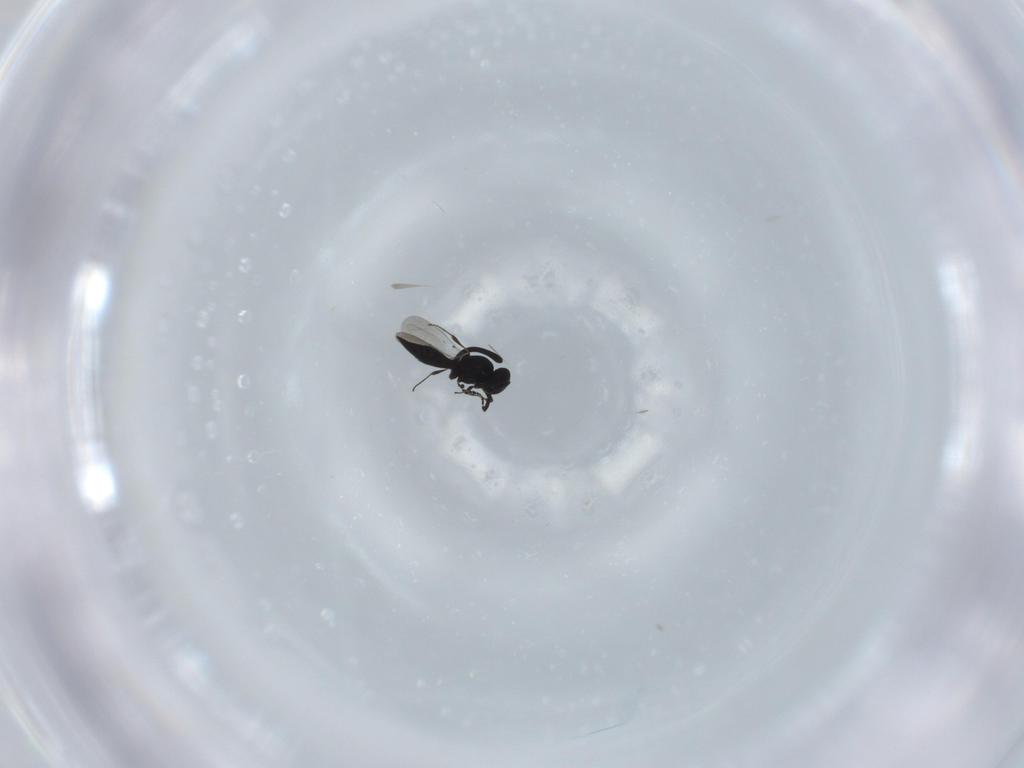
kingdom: Animalia
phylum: Arthropoda
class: Insecta
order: Hymenoptera
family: Platygastridae
